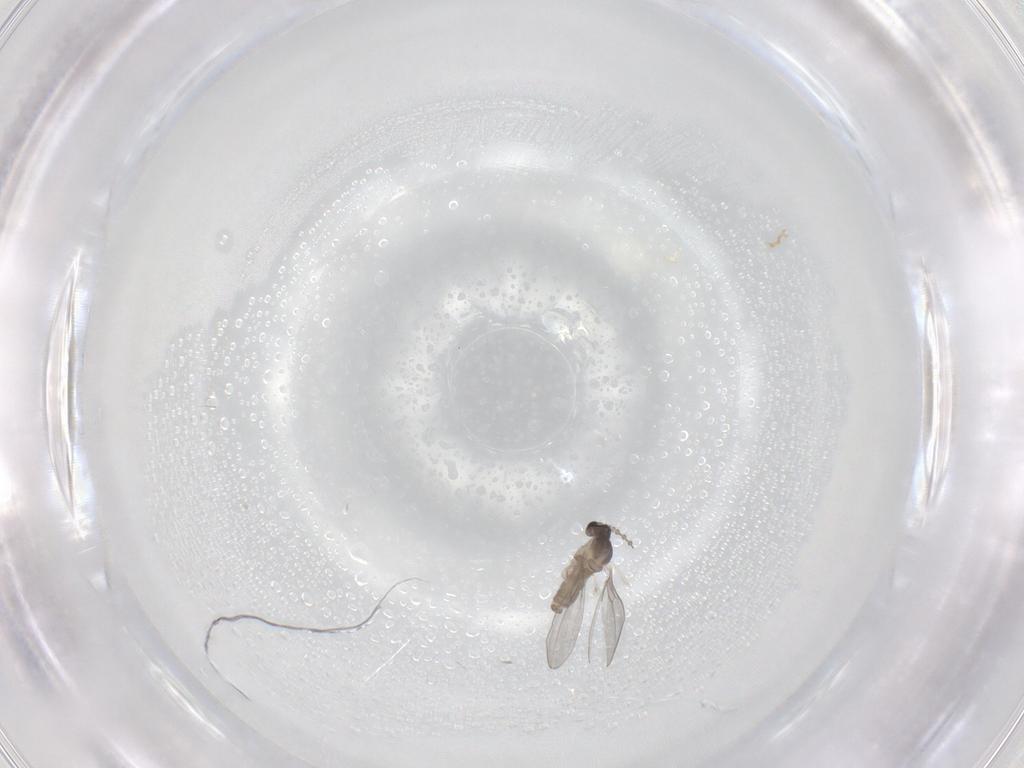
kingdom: Animalia
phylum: Arthropoda
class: Insecta
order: Diptera
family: Cecidomyiidae
